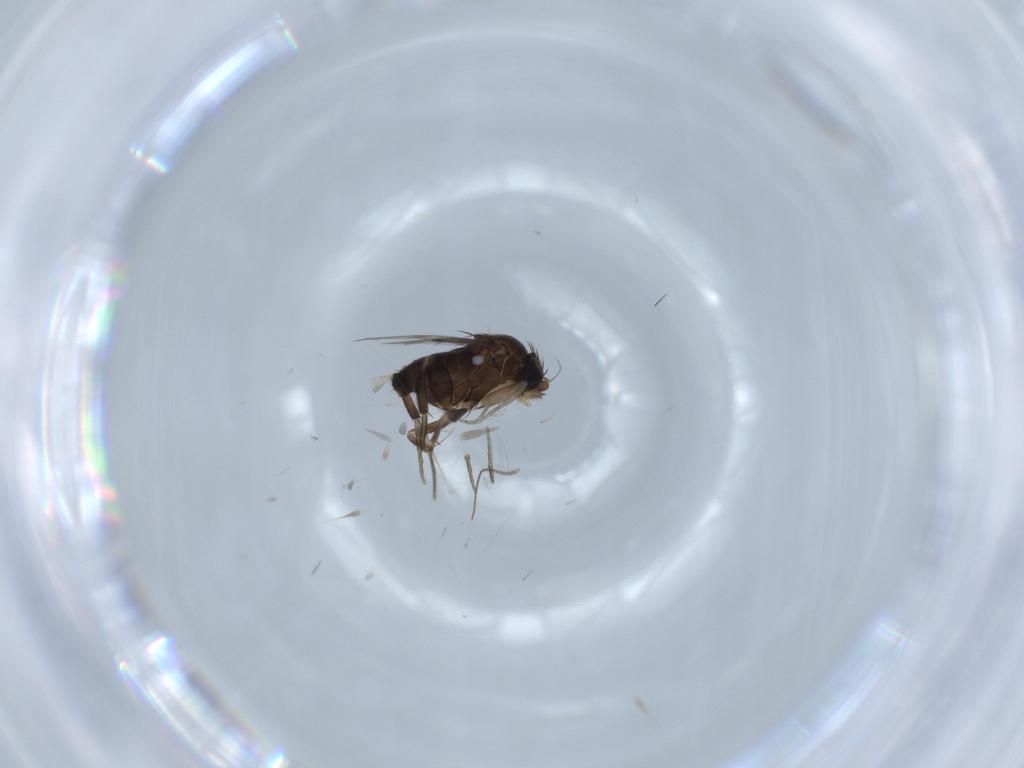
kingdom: Animalia
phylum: Arthropoda
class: Insecta
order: Diptera
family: Phoridae
